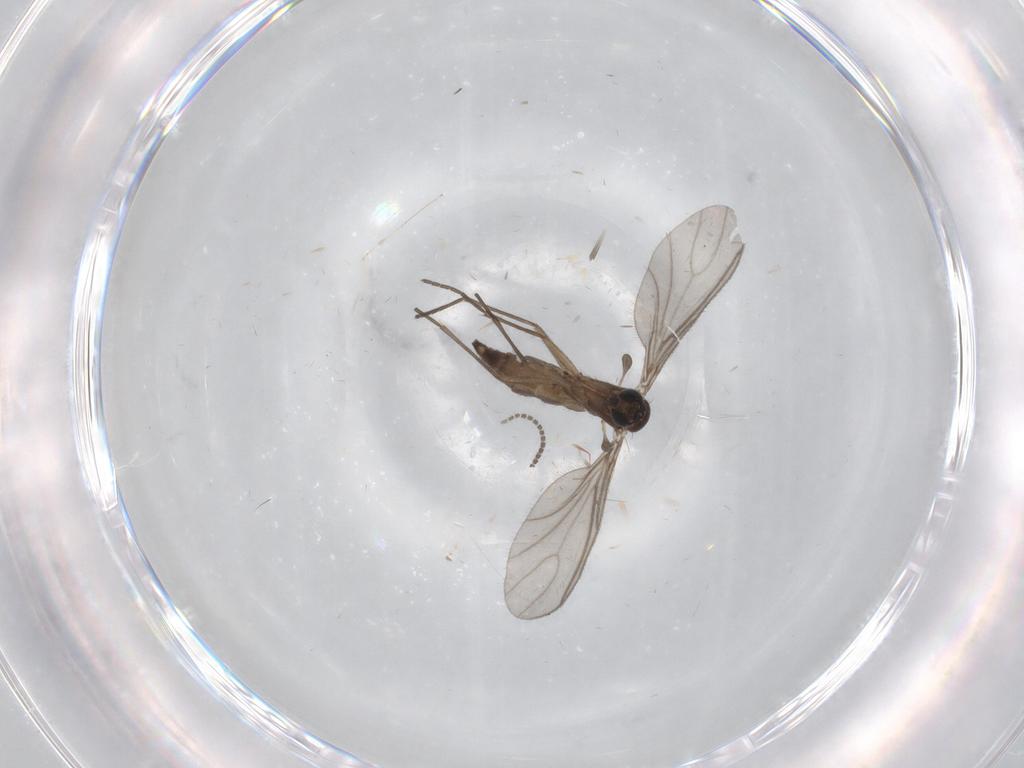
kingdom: Animalia
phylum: Arthropoda
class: Insecta
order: Diptera
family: Sciaridae
